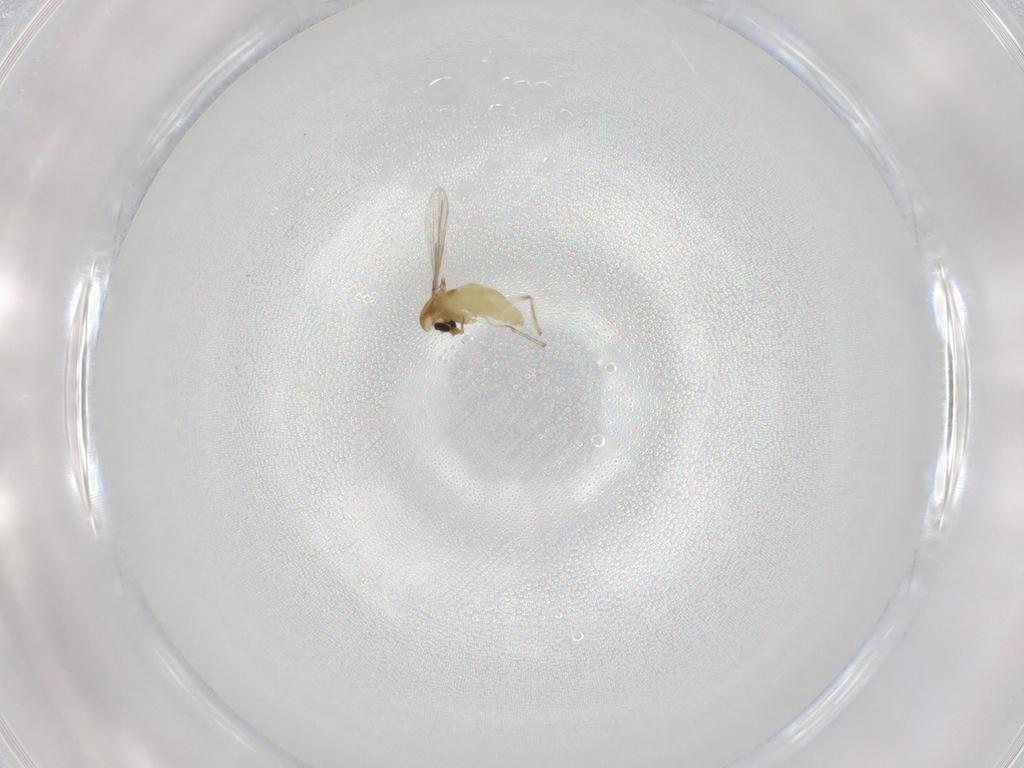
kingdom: Animalia
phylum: Arthropoda
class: Insecta
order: Diptera
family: Chironomidae
